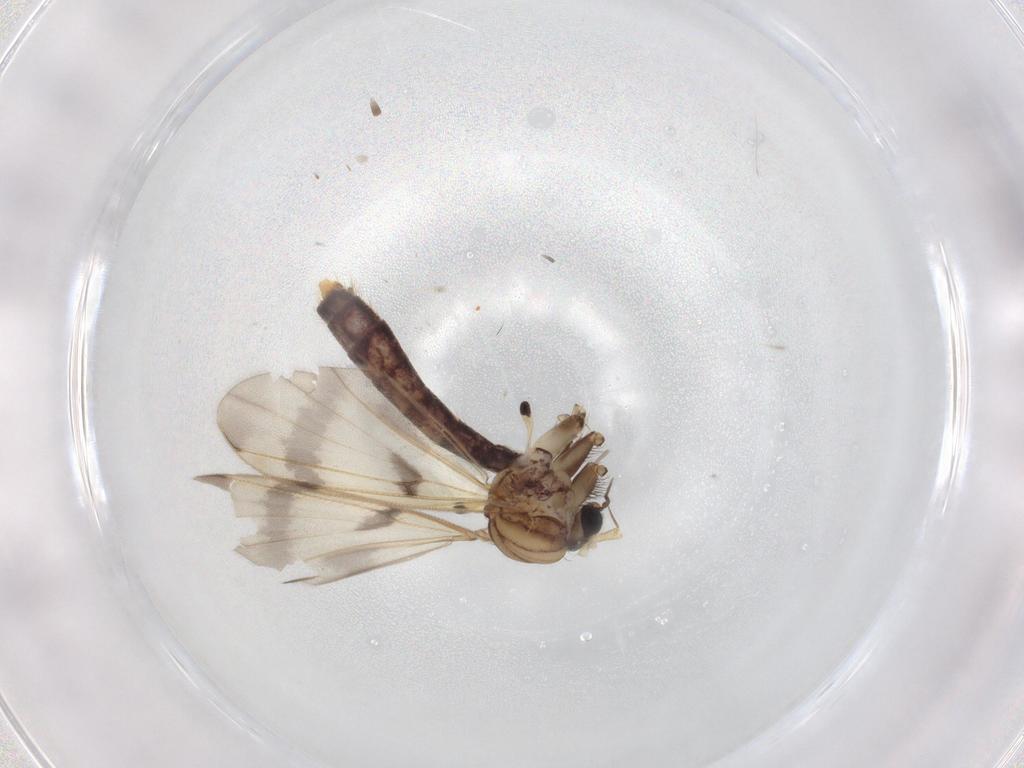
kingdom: Animalia
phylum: Arthropoda
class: Insecta
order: Diptera
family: Mycetophilidae
